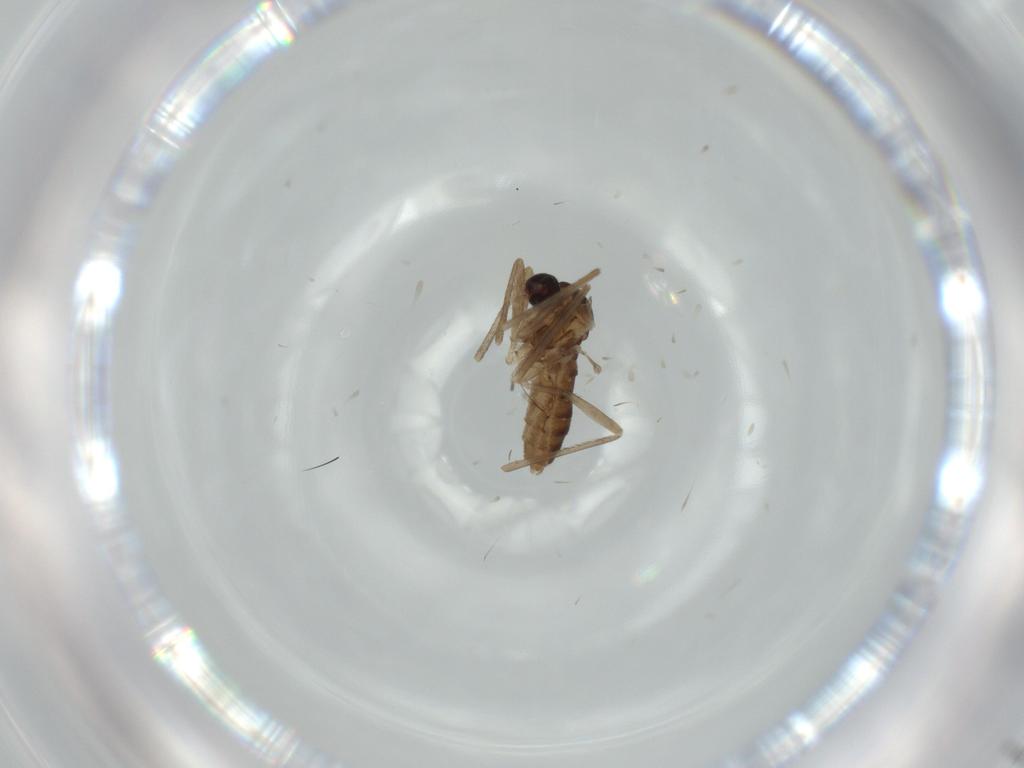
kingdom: Animalia
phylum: Arthropoda
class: Insecta
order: Diptera
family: Cecidomyiidae
